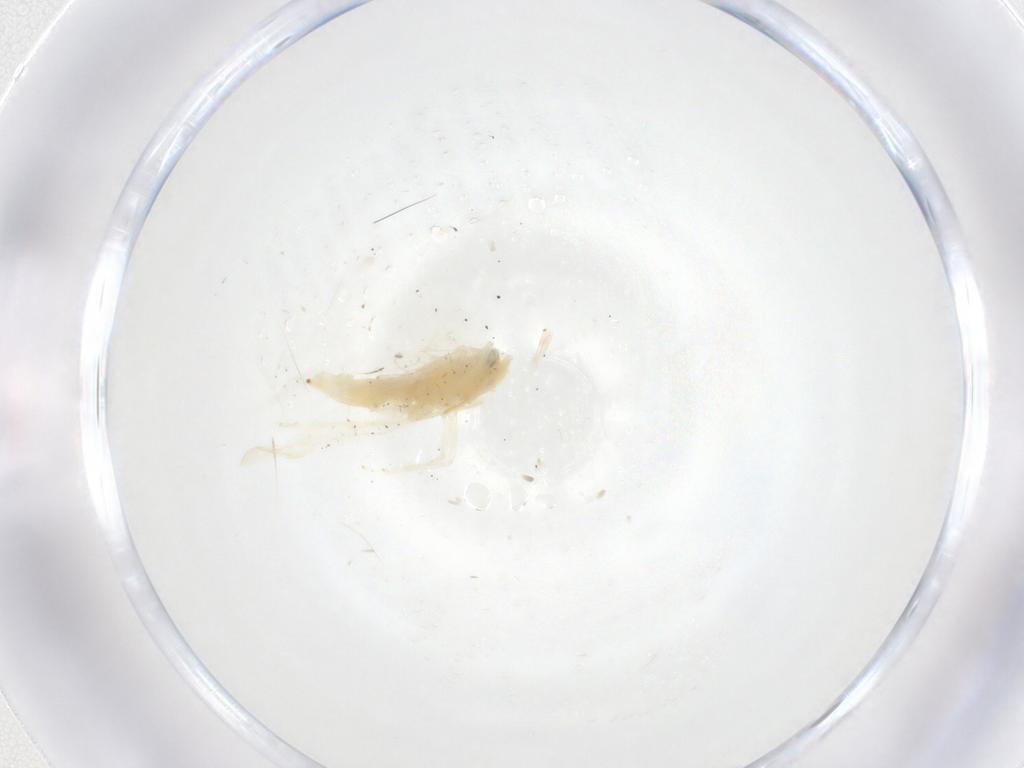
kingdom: Animalia
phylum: Arthropoda
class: Insecta
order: Hemiptera
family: Cicadellidae
